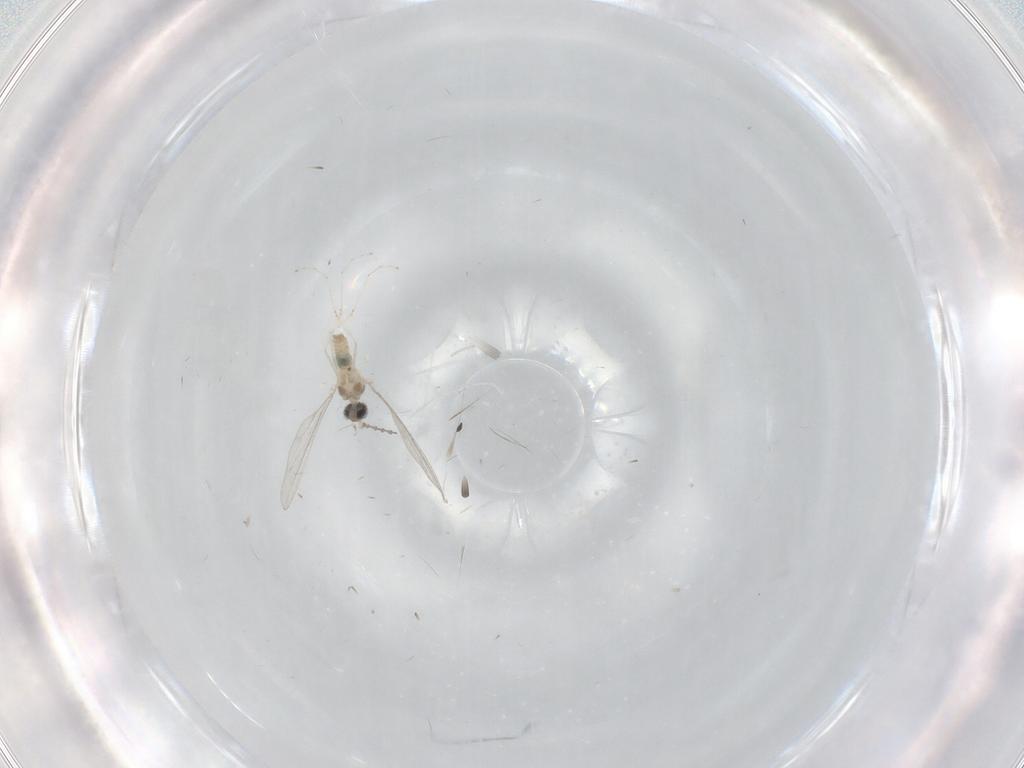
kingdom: Animalia
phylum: Arthropoda
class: Insecta
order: Diptera
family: Cecidomyiidae
